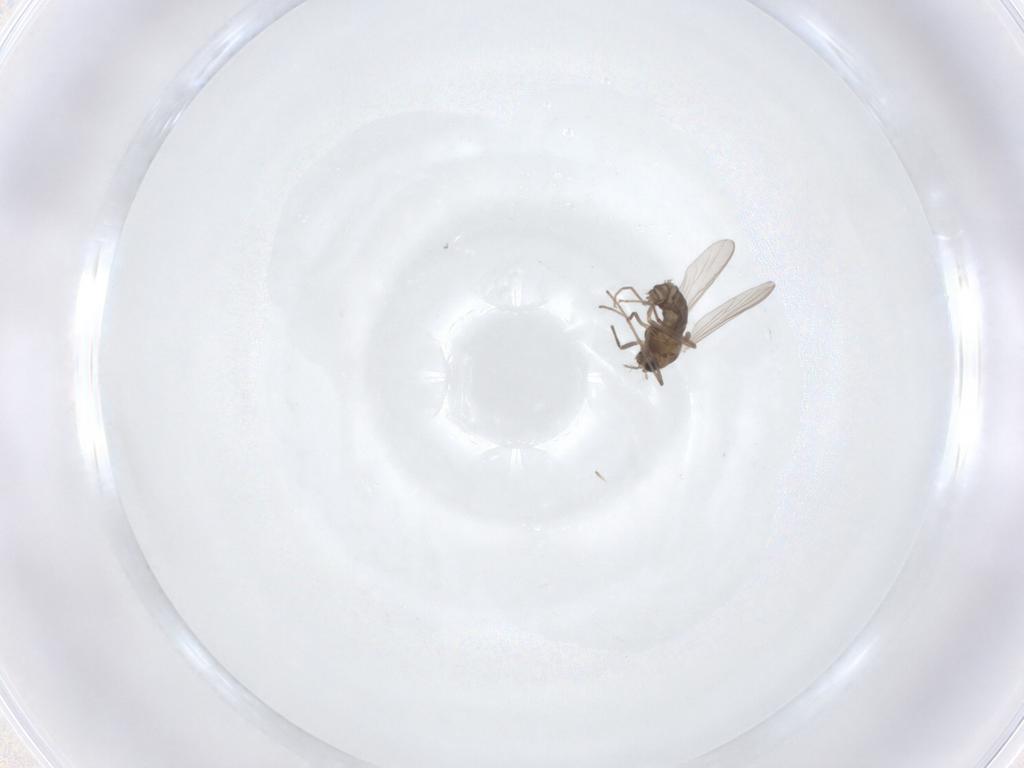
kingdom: Animalia
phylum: Arthropoda
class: Insecta
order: Diptera
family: Chironomidae
